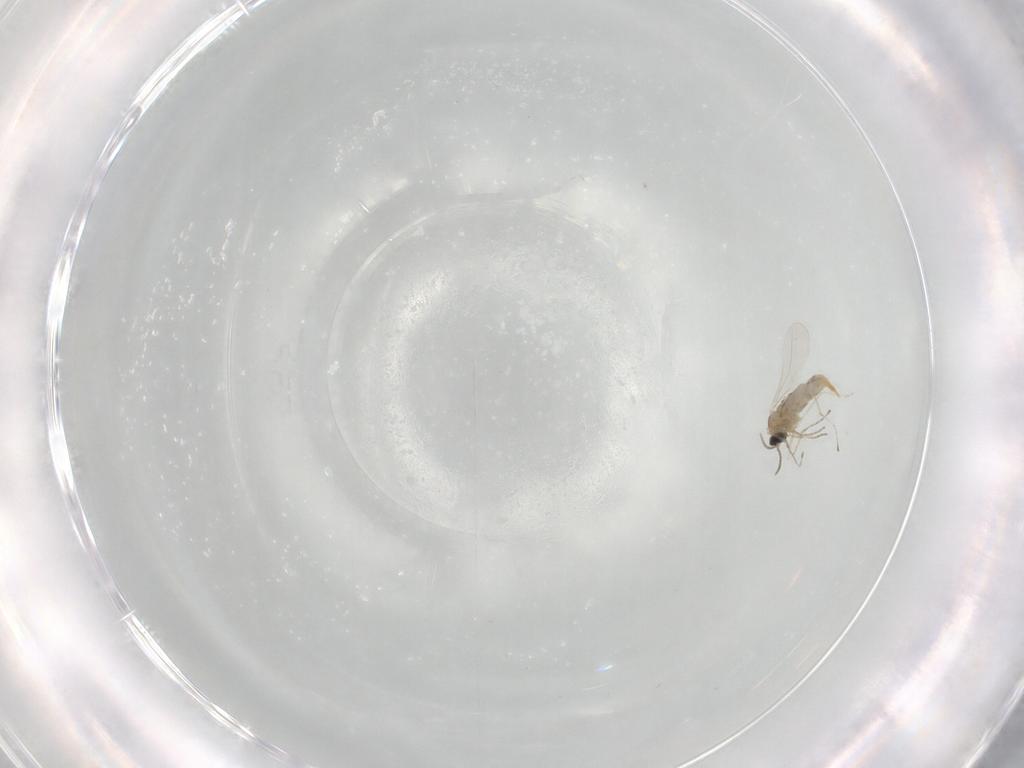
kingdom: Animalia
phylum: Arthropoda
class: Insecta
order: Diptera
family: Cecidomyiidae
